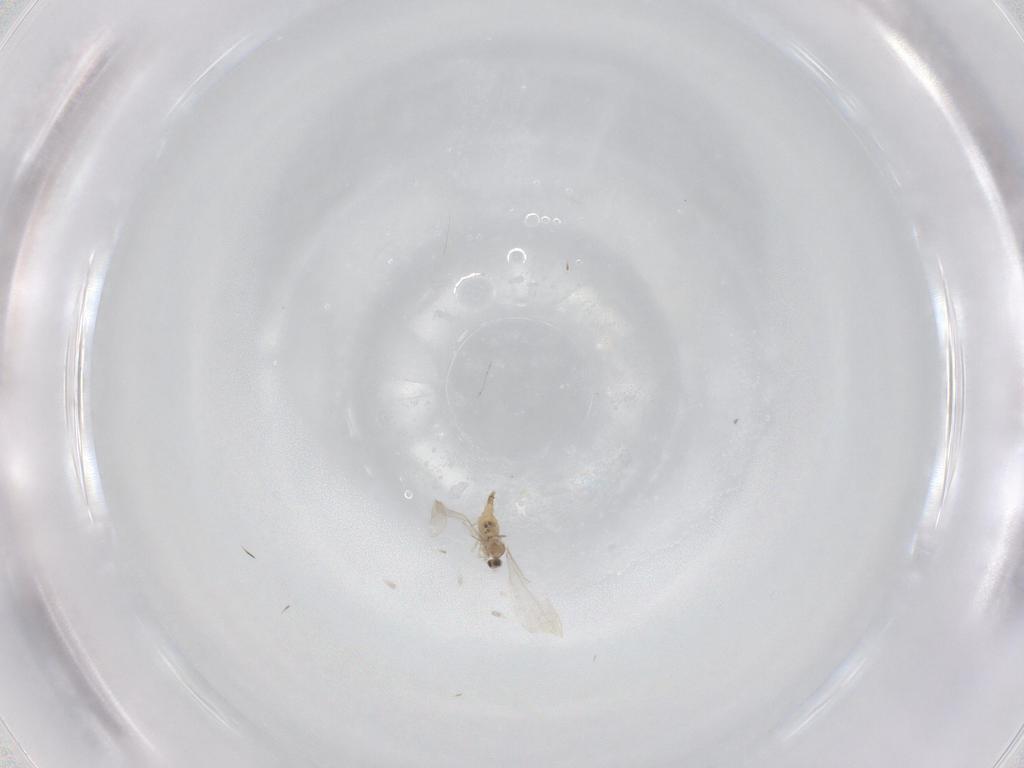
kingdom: Animalia
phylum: Arthropoda
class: Insecta
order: Diptera
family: Cecidomyiidae
